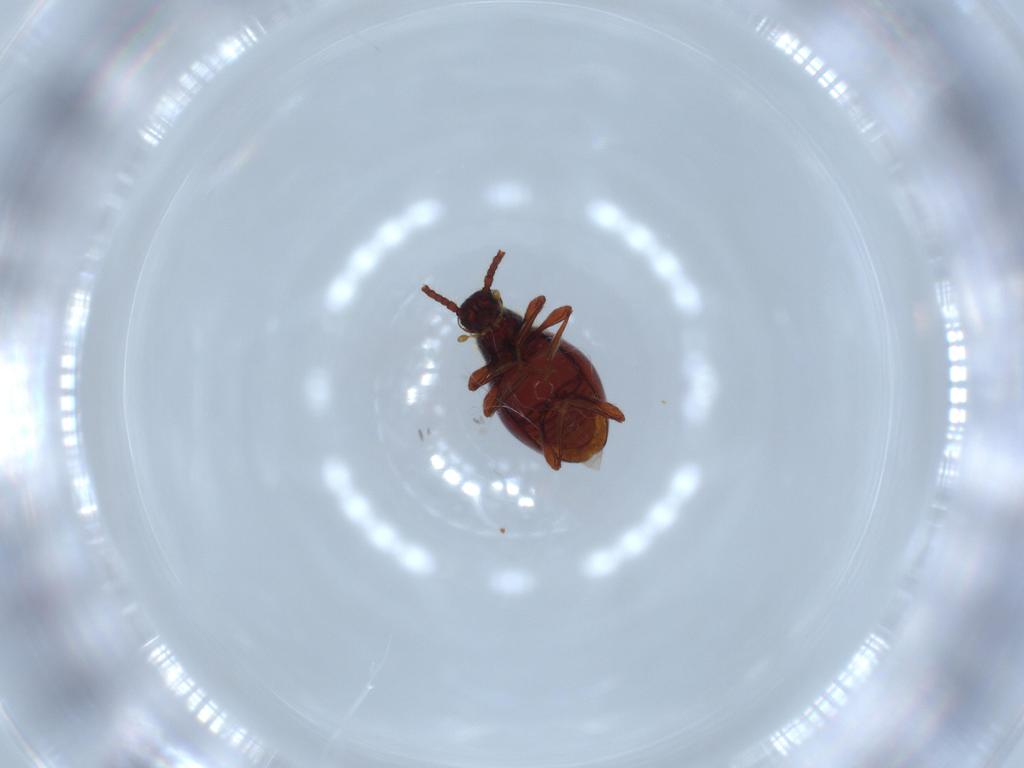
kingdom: Animalia
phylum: Arthropoda
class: Insecta
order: Coleoptera
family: Staphylinidae
